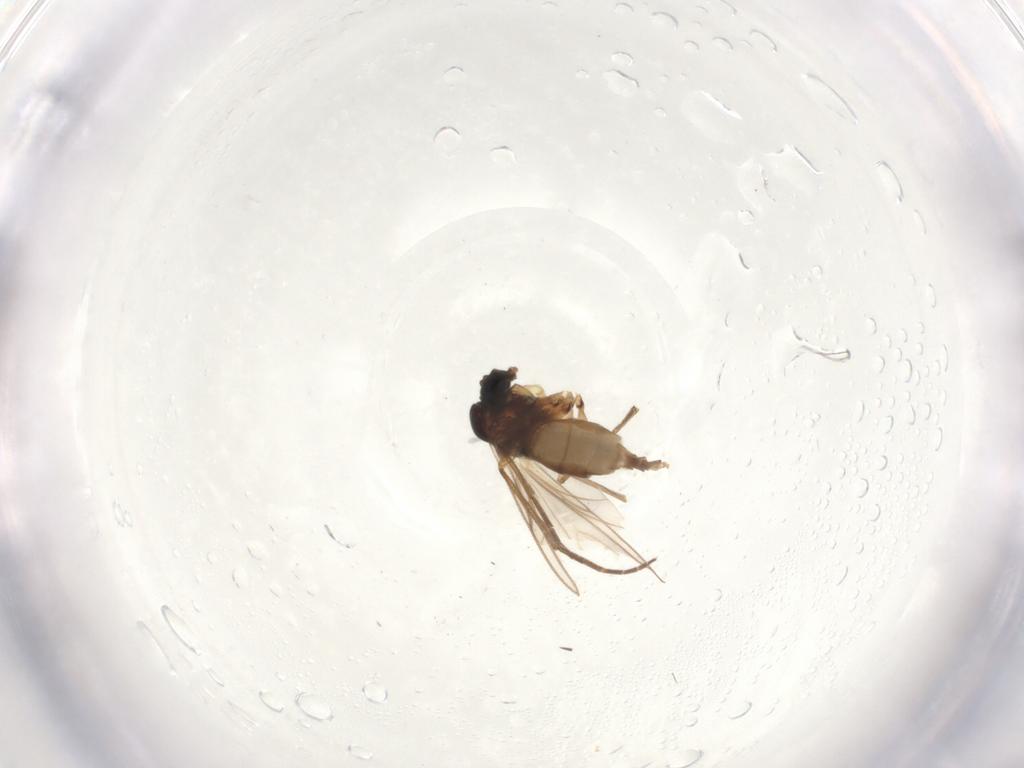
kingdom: Animalia
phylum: Arthropoda
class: Insecta
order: Diptera
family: Sciaridae
